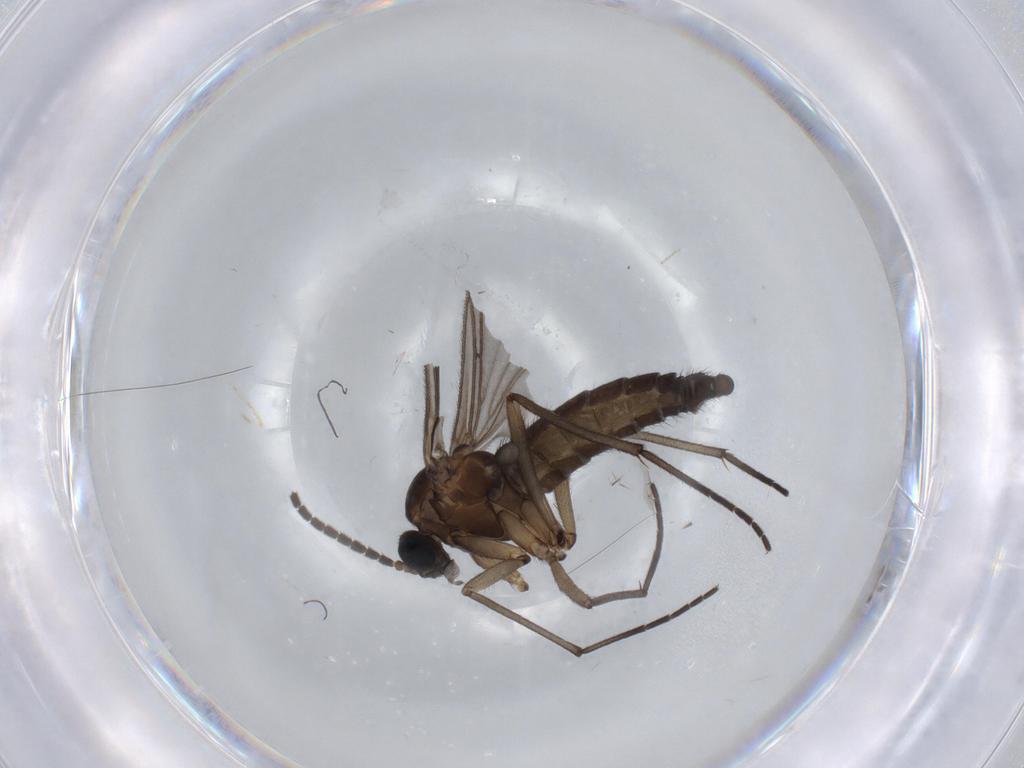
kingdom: Animalia
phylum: Arthropoda
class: Insecta
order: Diptera
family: Sciaridae
